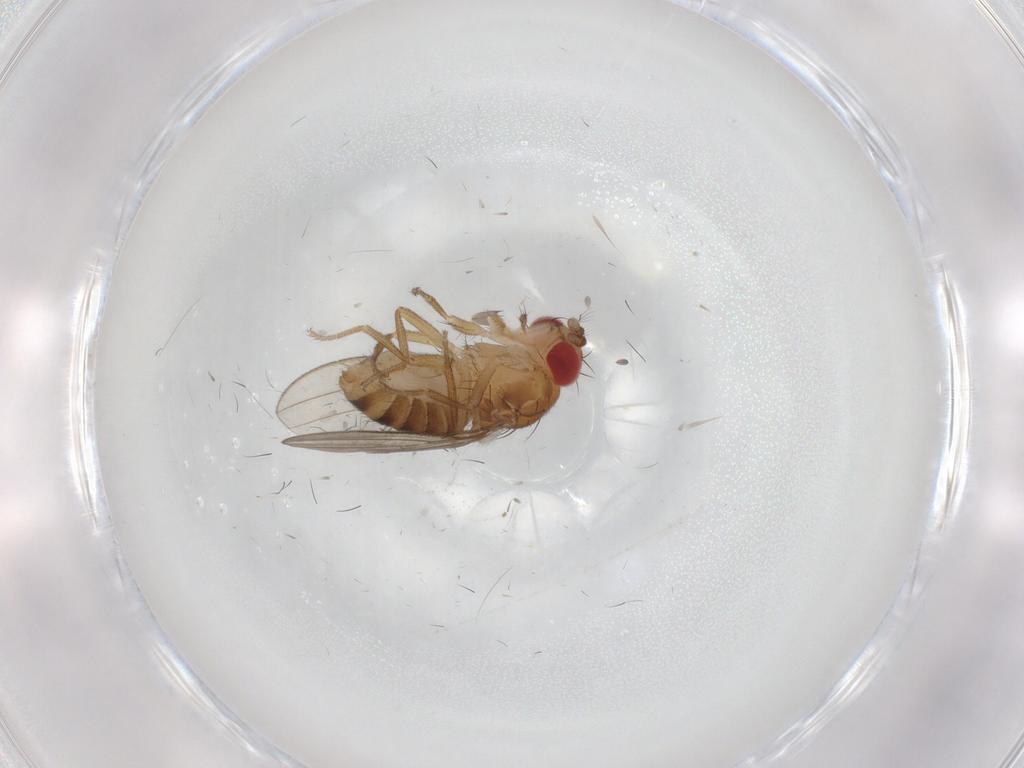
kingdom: Animalia
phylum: Arthropoda
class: Insecta
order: Diptera
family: Drosophilidae
